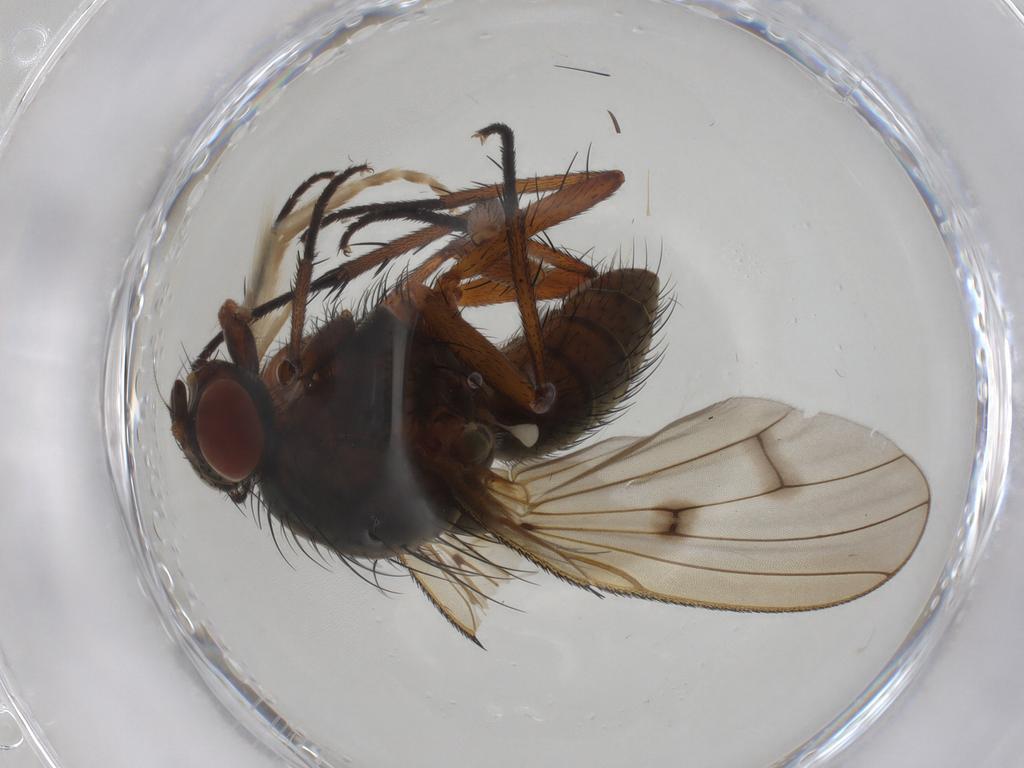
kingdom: Animalia
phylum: Arthropoda
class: Insecta
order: Diptera
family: Anthomyiidae
